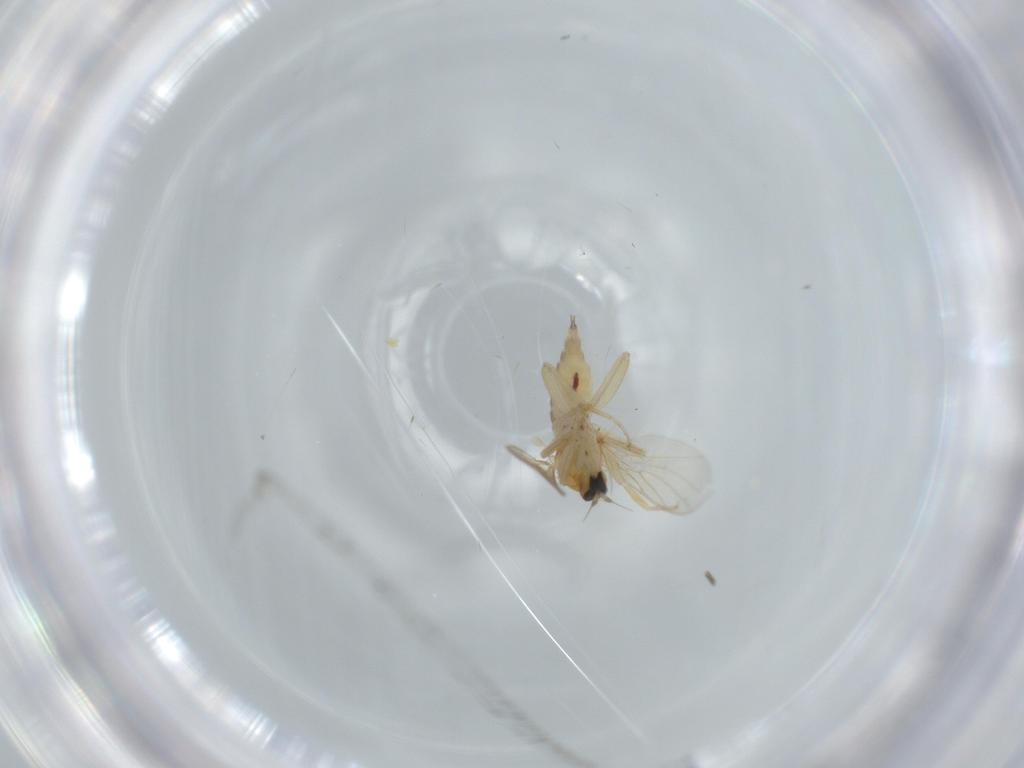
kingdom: Animalia
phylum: Arthropoda
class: Insecta
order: Diptera
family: Hybotidae
